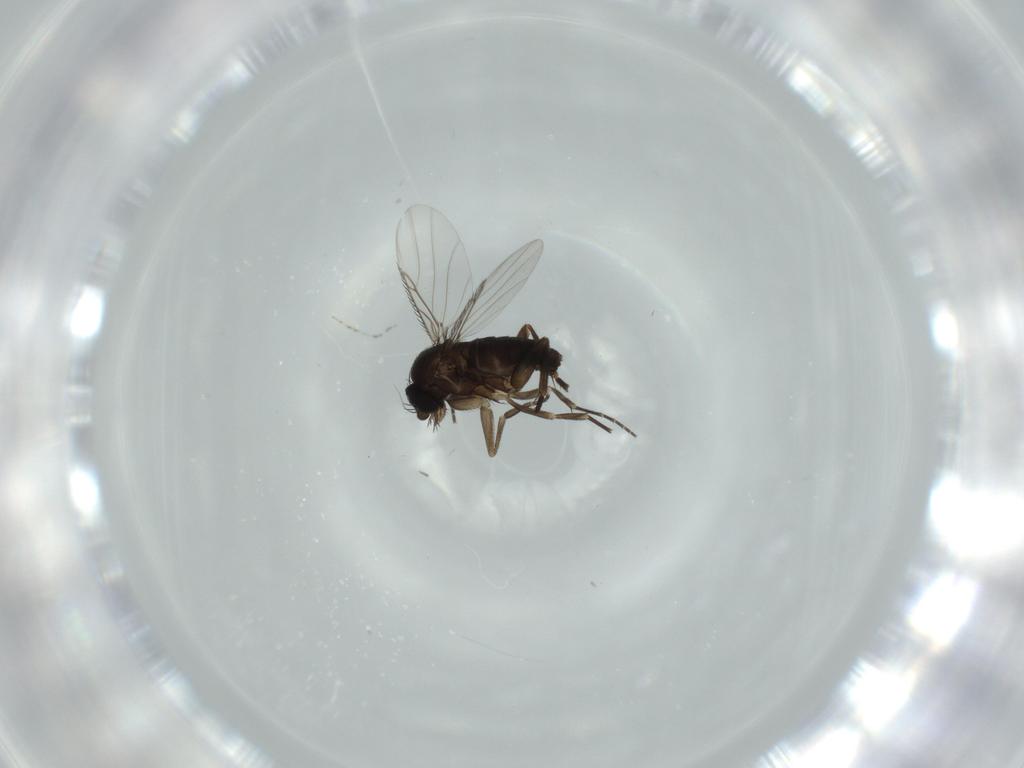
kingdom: Animalia
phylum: Arthropoda
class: Insecta
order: Diptera
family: Phoridae
